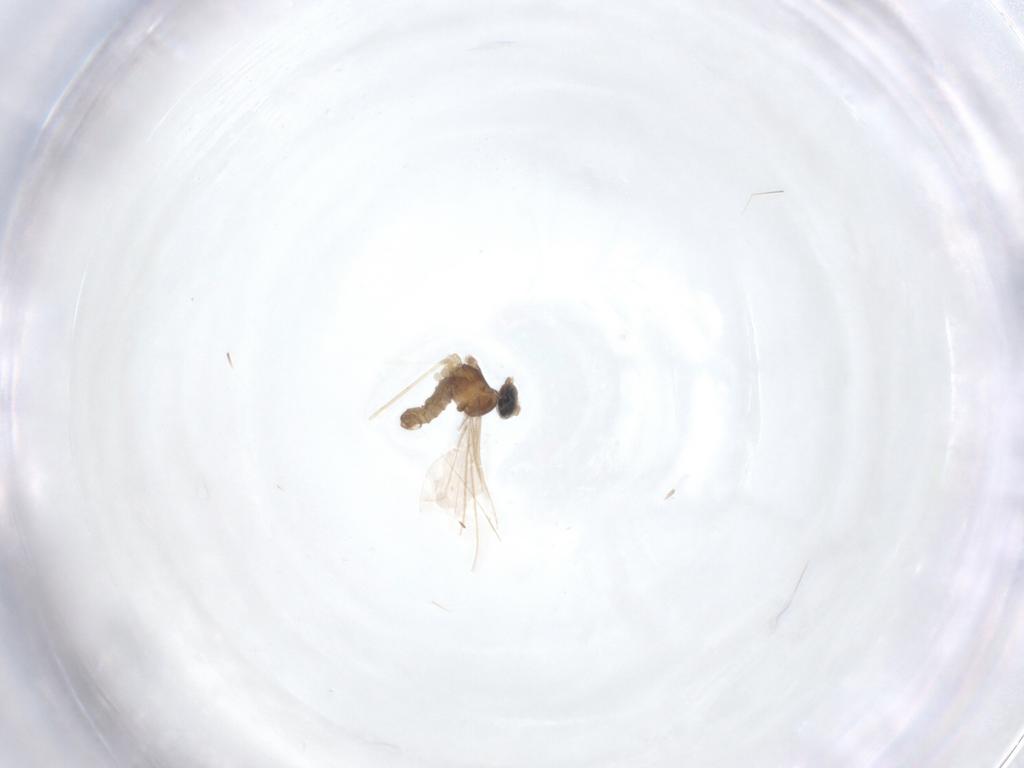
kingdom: Animalia
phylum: Arthropoda
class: Insecta
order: Diptera
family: Cecidomyiidae
